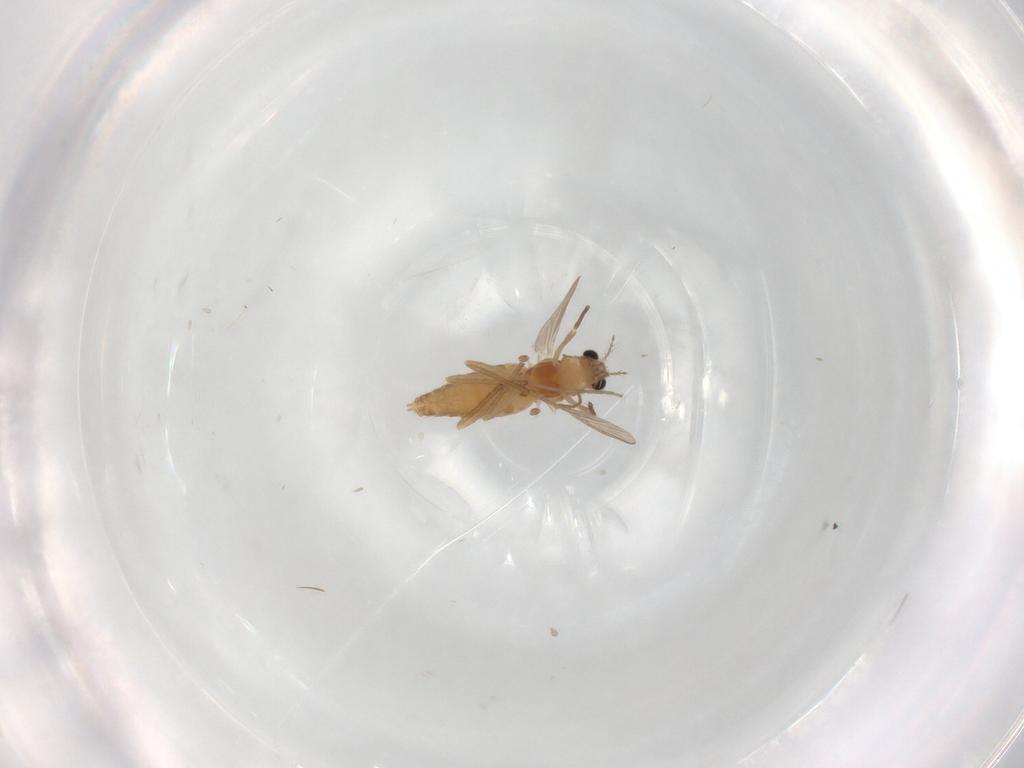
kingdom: Animalia
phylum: Arthropoda
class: Insecta
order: Diptera
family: Chironomidae
